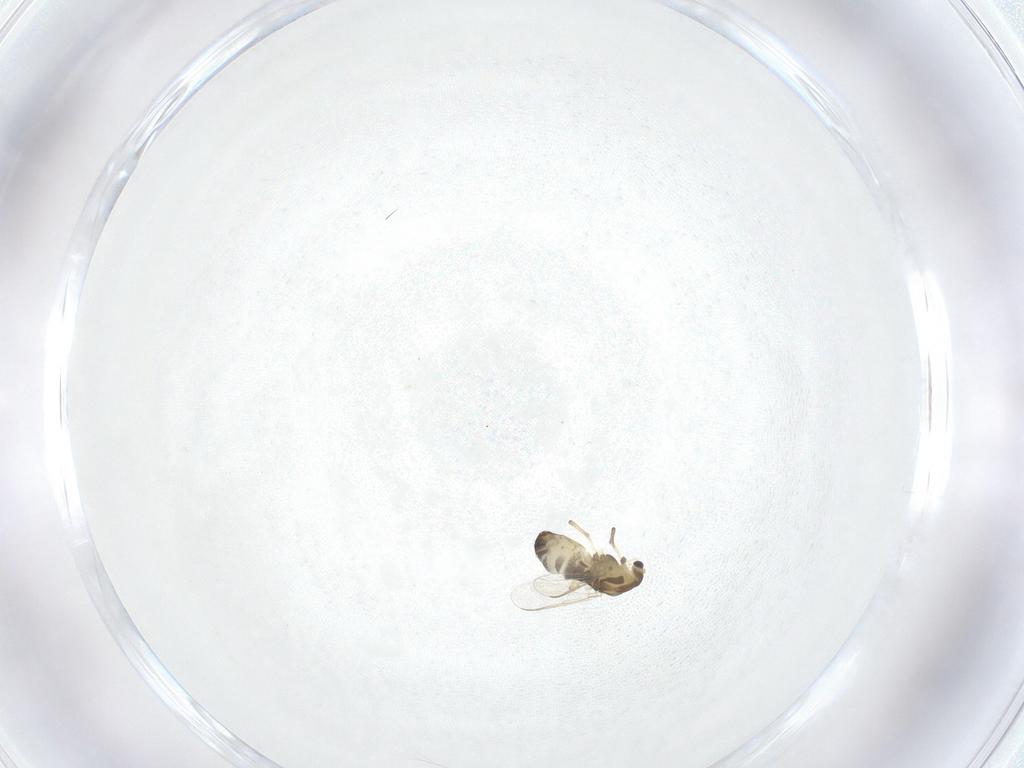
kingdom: Animalia
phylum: Arthropoda
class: Insecta
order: Diptera
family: Chironomidae
